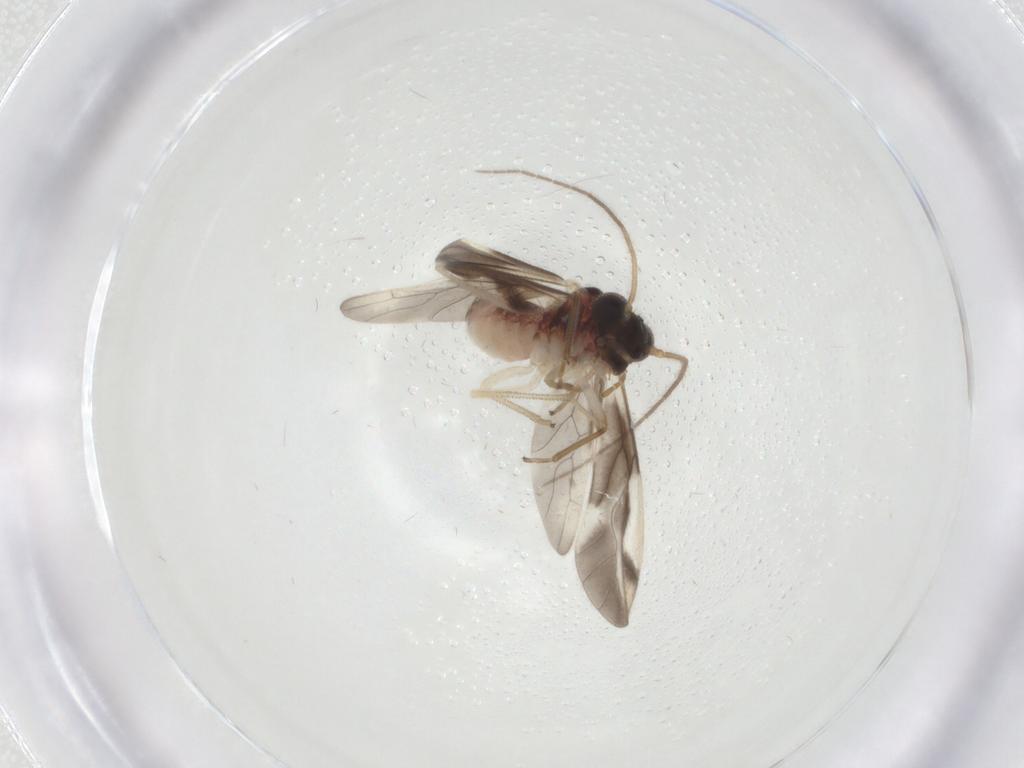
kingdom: Animalia
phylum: Arthropoda
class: Insecta
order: Psocodea
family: Caeciliusidae
